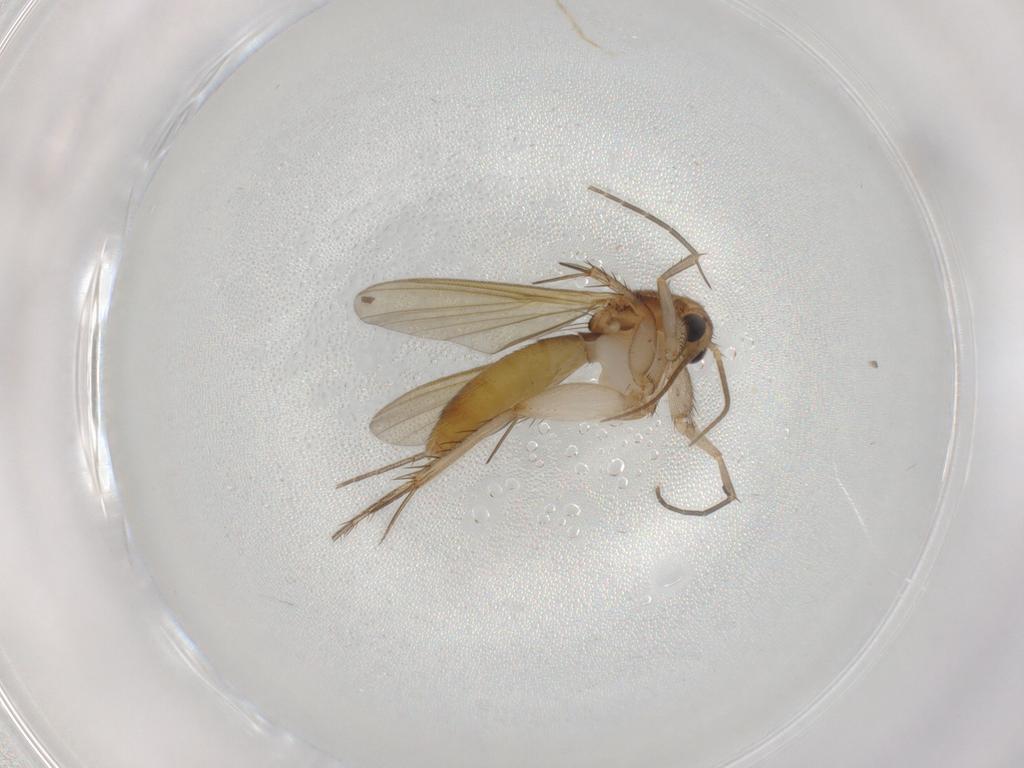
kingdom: Animalia
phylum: Arthropoda
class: Insecta
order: Diptera
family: Mycetophilidae
